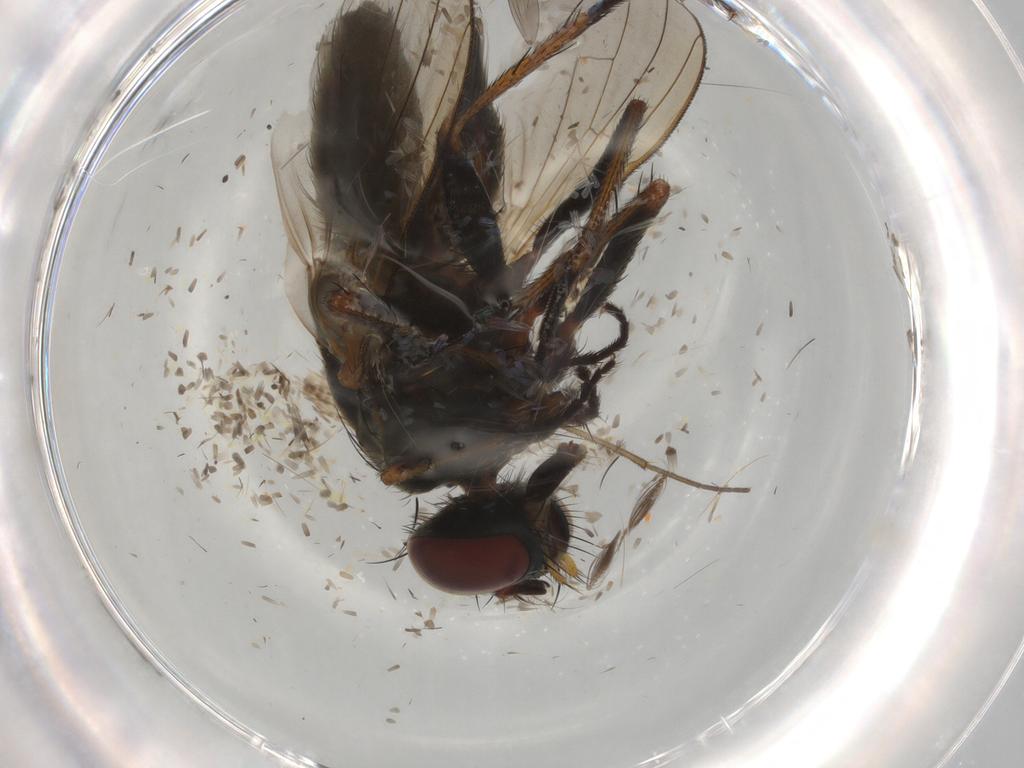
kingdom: Animalia
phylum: Arthropoda
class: Insecta
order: Diptera
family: Muscidae
